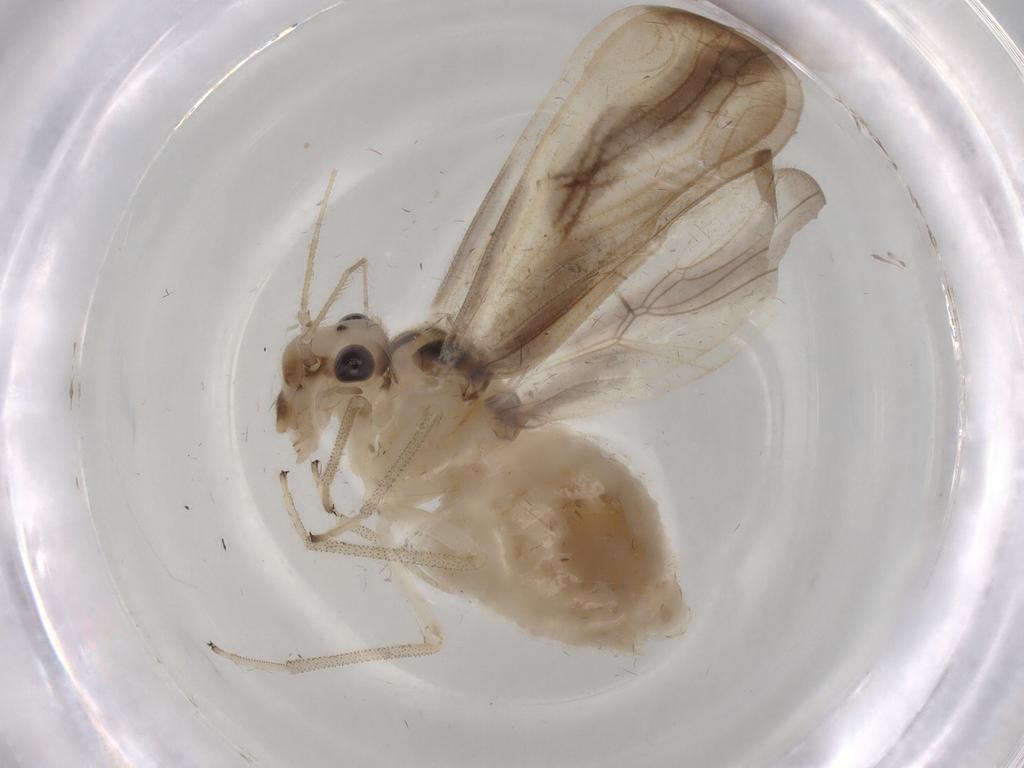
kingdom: Animalia
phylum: Arthropoda
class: Insecta
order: Psocodea
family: Amphipsocidae
